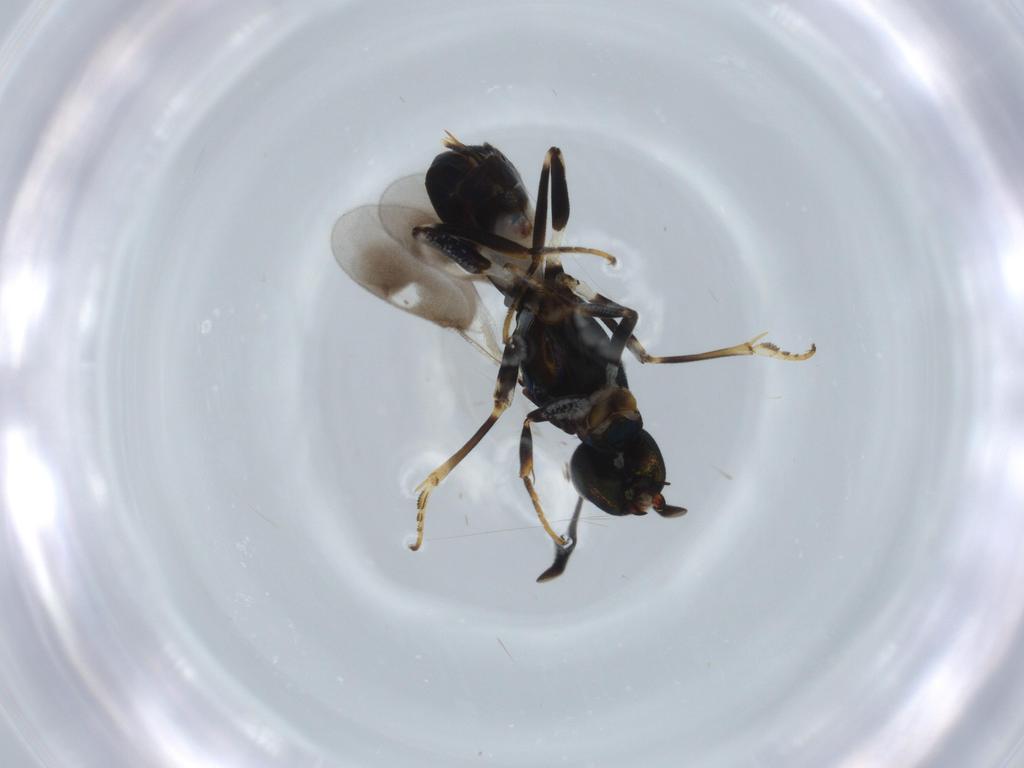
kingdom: Animalia
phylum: Arthropoda
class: Insecta
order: Hymenoptera
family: Eupelmidae
